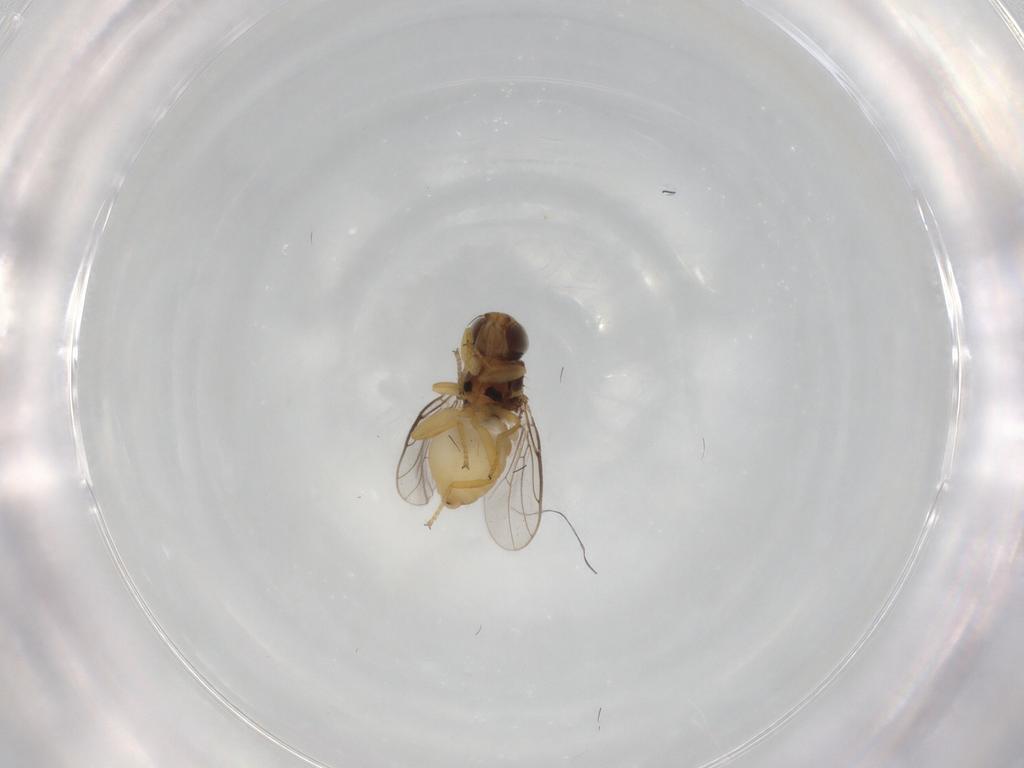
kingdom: Animalia
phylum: Arthropoda
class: Insecta
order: Diptera
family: Chloropidae
